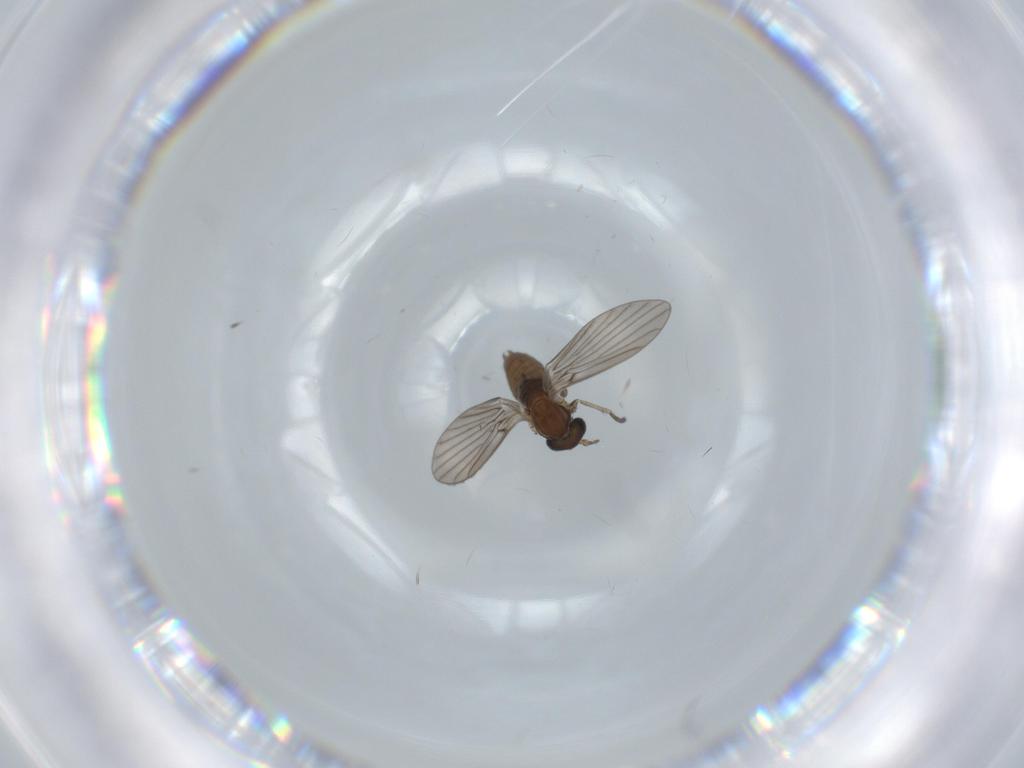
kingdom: Animalia
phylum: Arthropoda
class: Insecta
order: Diptera
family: Psychodidae
